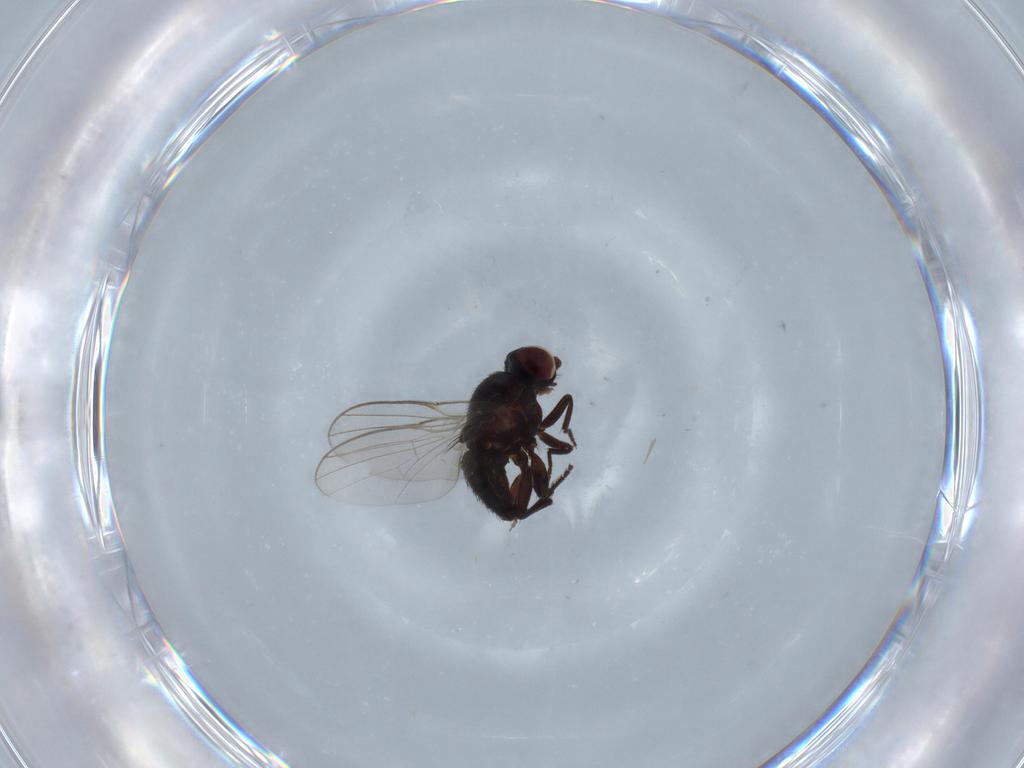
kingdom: Animalia
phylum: Arthropoda
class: Insecta
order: Diptera
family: Agromyzidae
